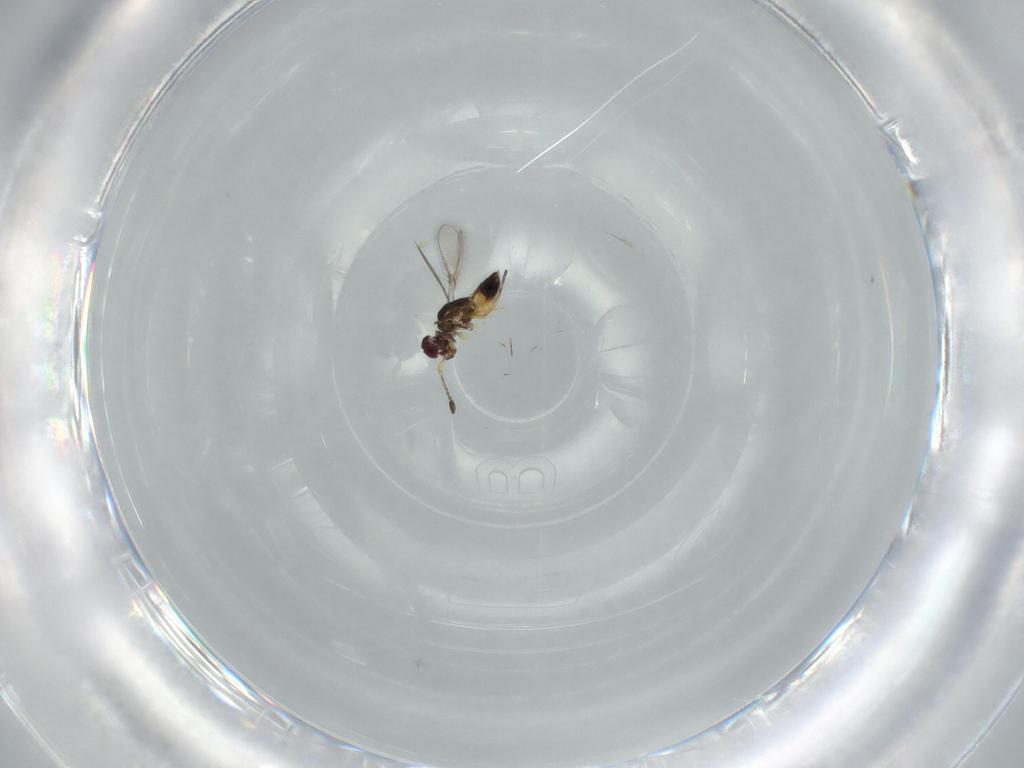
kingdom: Animalia
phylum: Arthropoda
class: Insecta
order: Hymenoptera
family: Mymaridae
